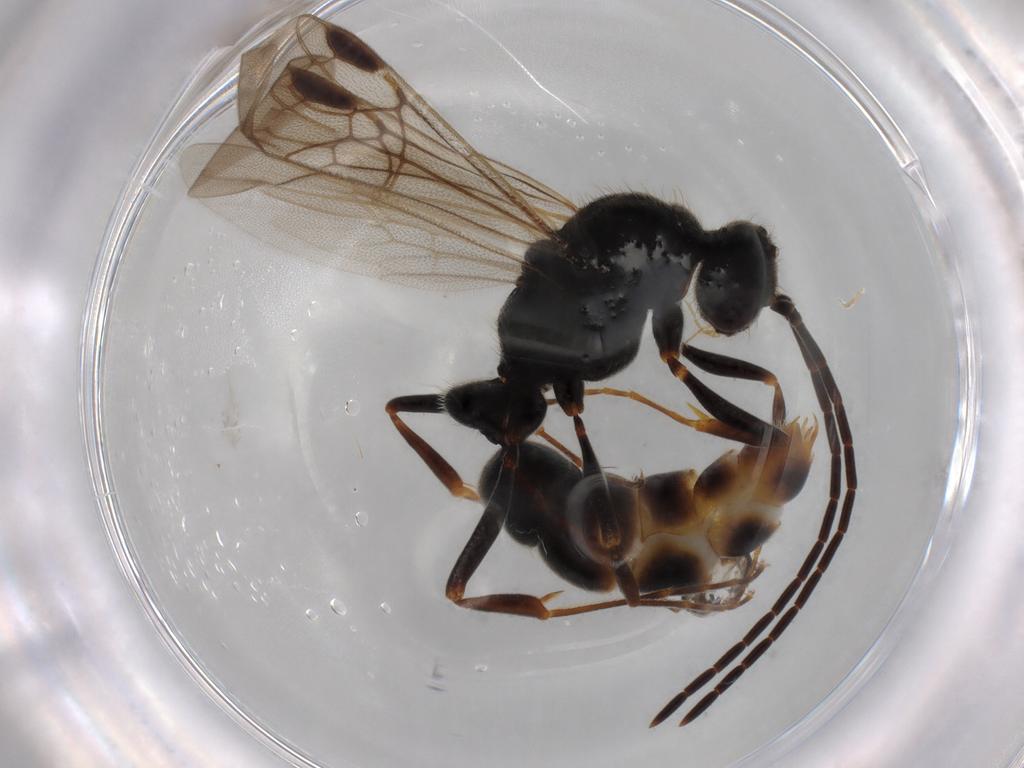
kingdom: Animalia
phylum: Arthropoda
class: Insecta
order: Hymenoptera
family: Formicidae
